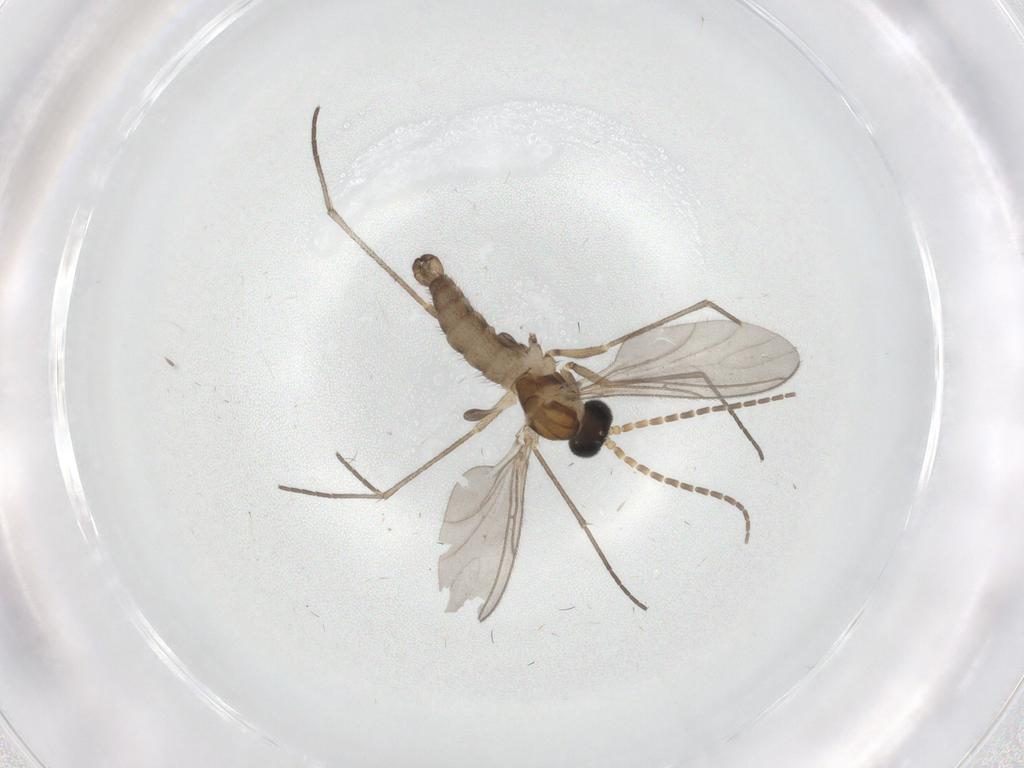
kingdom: Animalia
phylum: Arthropoda
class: Insecta
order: Diptera
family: Sciaridae
